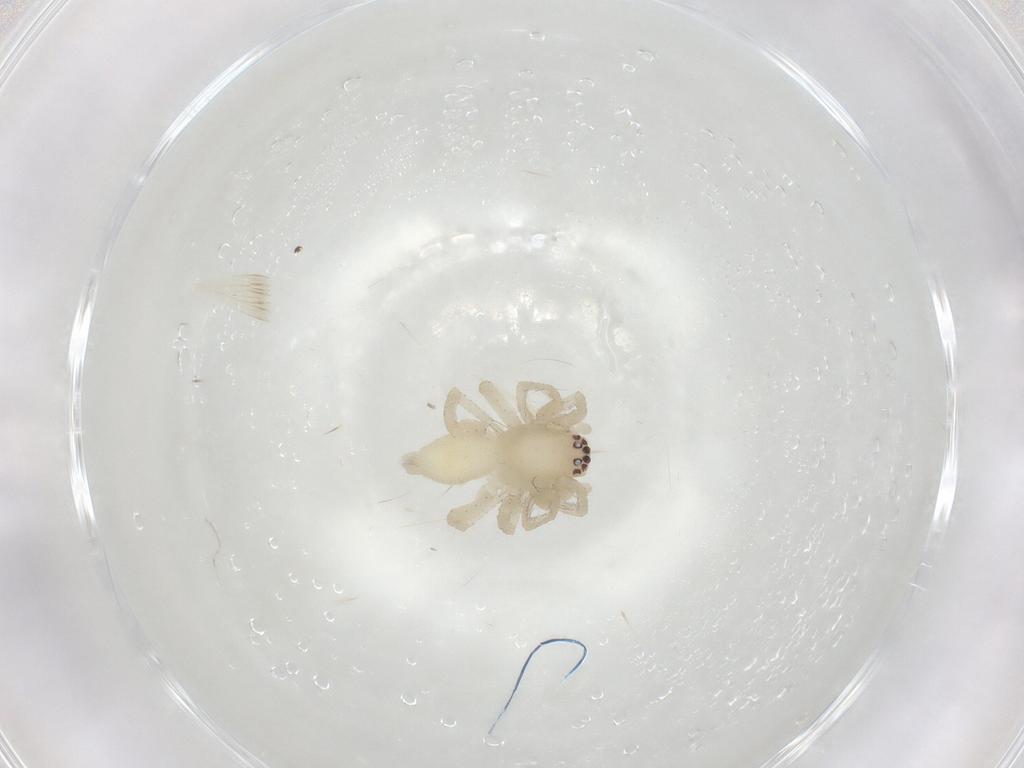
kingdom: Animalia
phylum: Arthropoda
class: Arachnida
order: Araneae
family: Clubionidae
